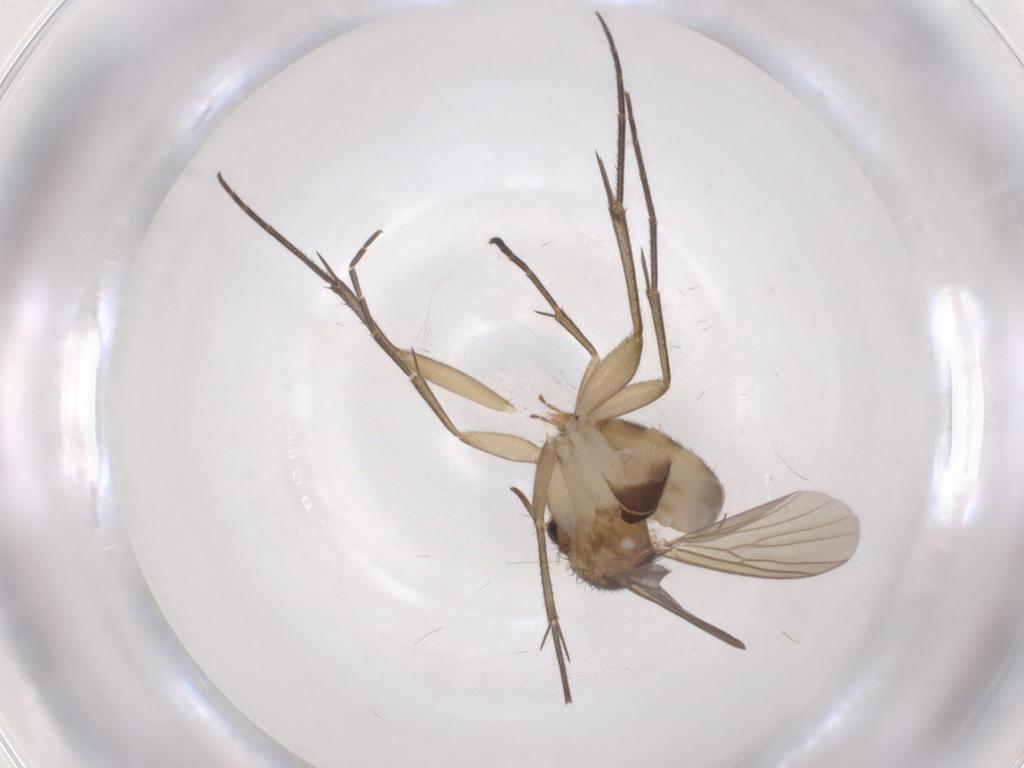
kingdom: Animalia
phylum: Arthropoda
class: Insecta
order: Diptera
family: Mycetophilidae
